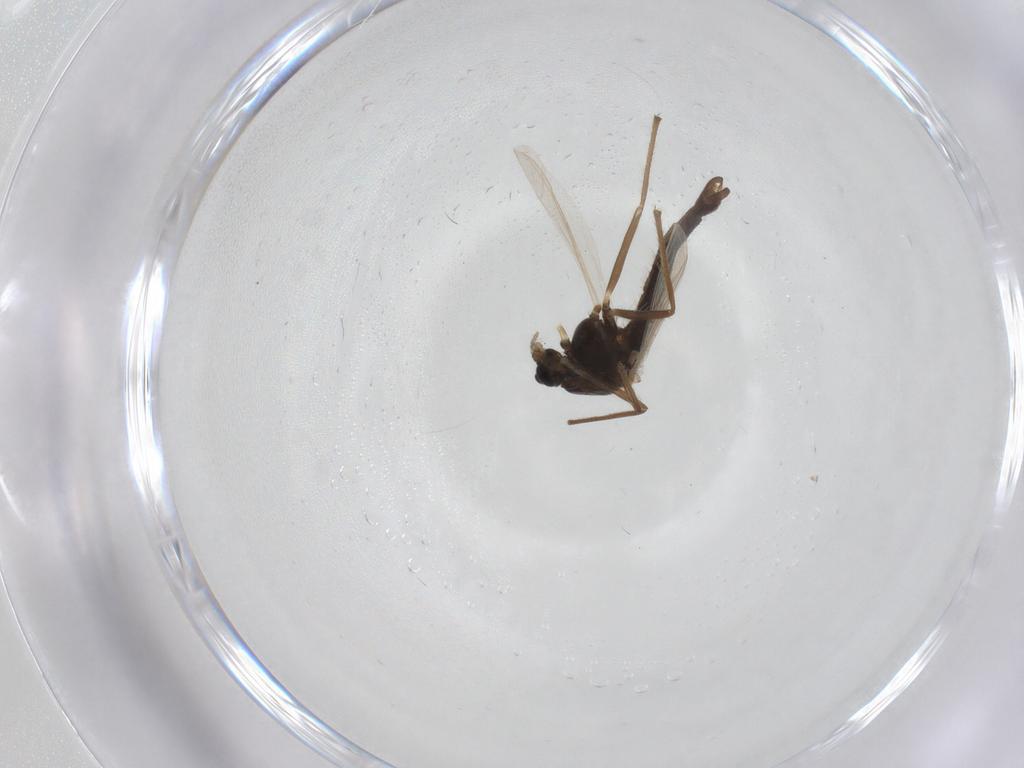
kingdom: Animalia
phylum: Arthropoda
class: Insecta
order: Diptera
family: Chironomidae
